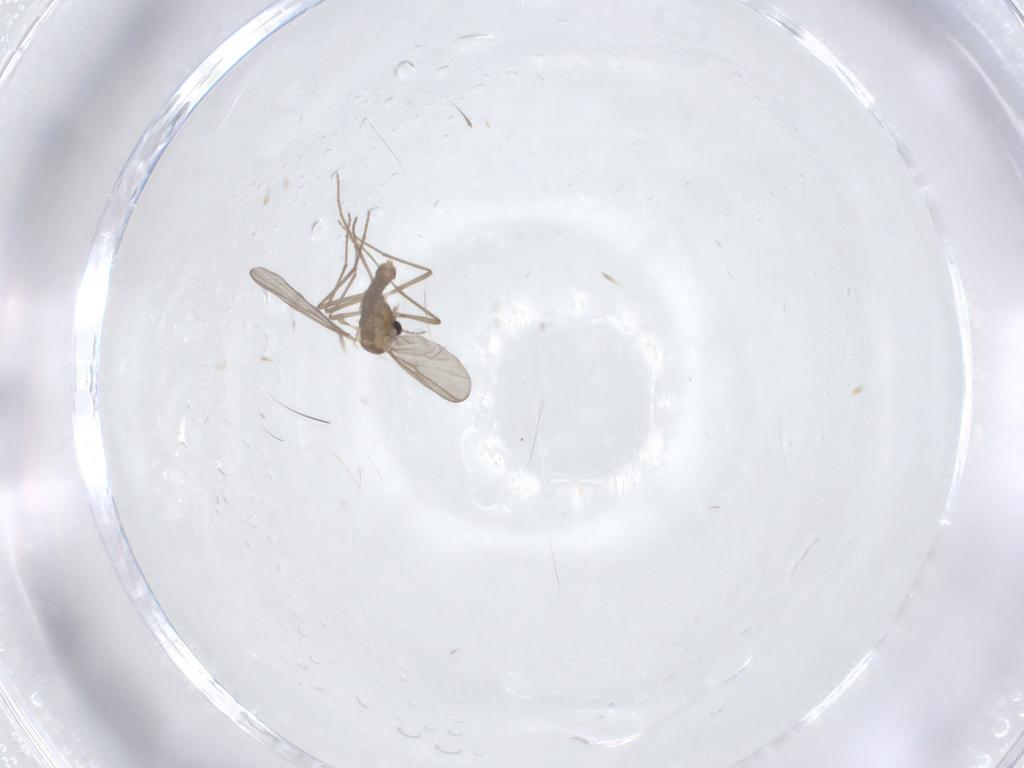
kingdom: Animalia
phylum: Arthropoda
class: Insecta
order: Diptera
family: Tipulidae
